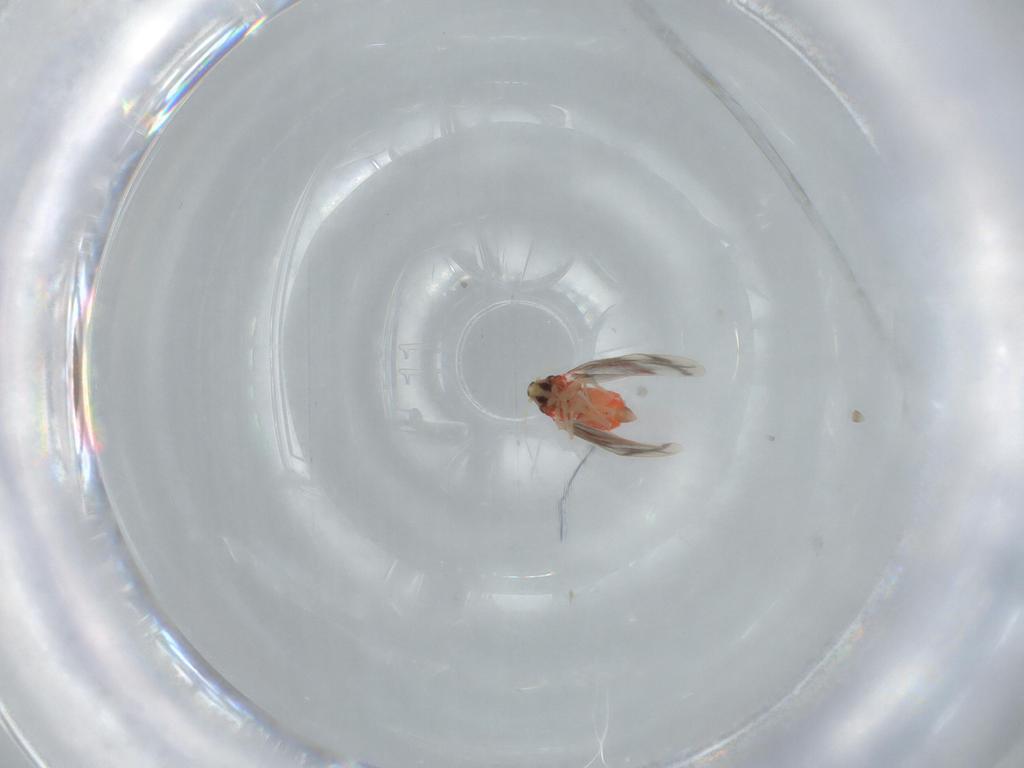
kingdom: Animalia
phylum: Arthropoda
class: Insecta
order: Hemiptera
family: Aleyrodidae
